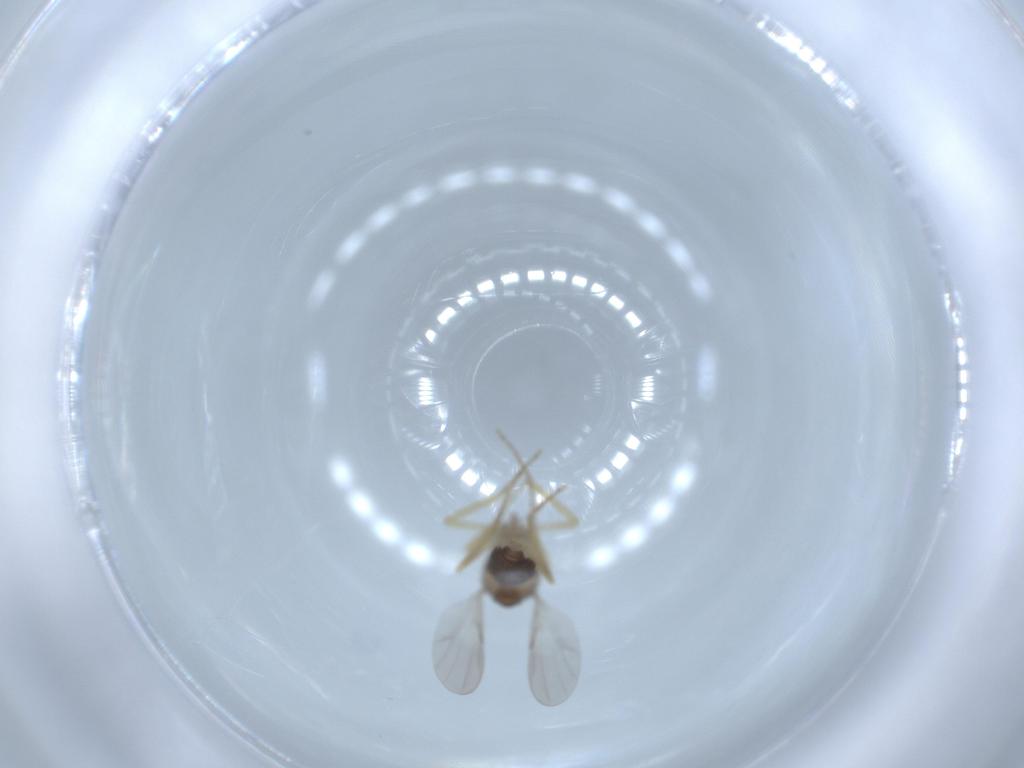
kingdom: Animalia
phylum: Arthropoda
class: Insecta
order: Diptera
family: Ceratopogonidae
